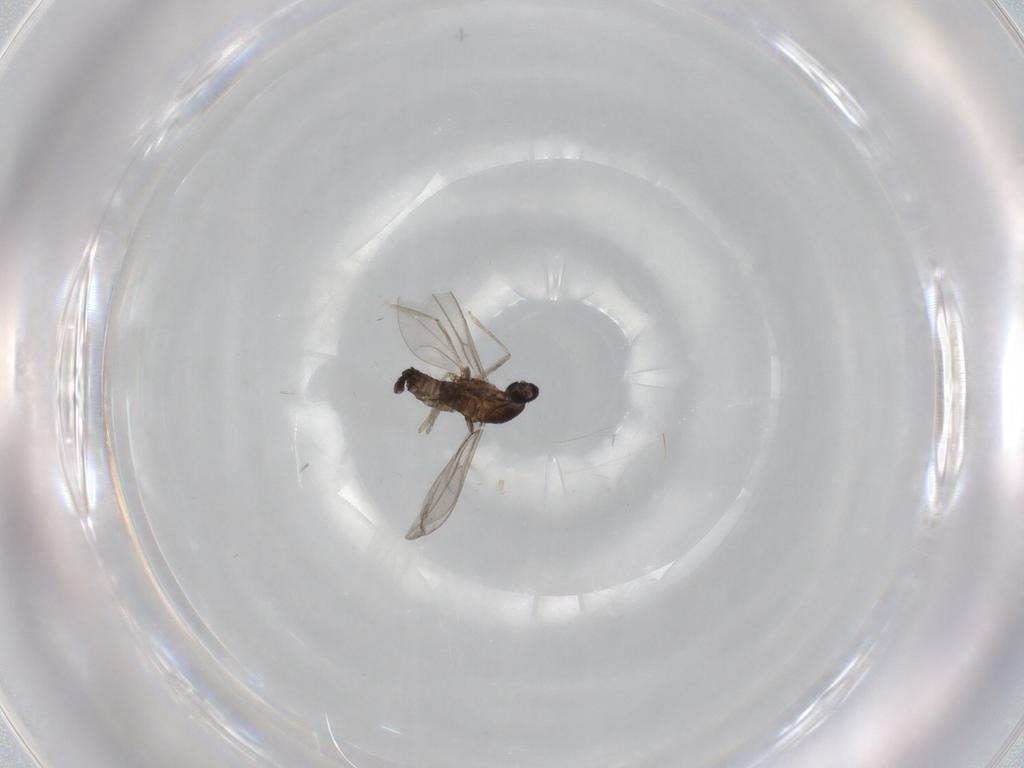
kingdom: Animalia
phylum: Arthropoda
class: Insecta
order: Diptera
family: Cecidomyiidae
